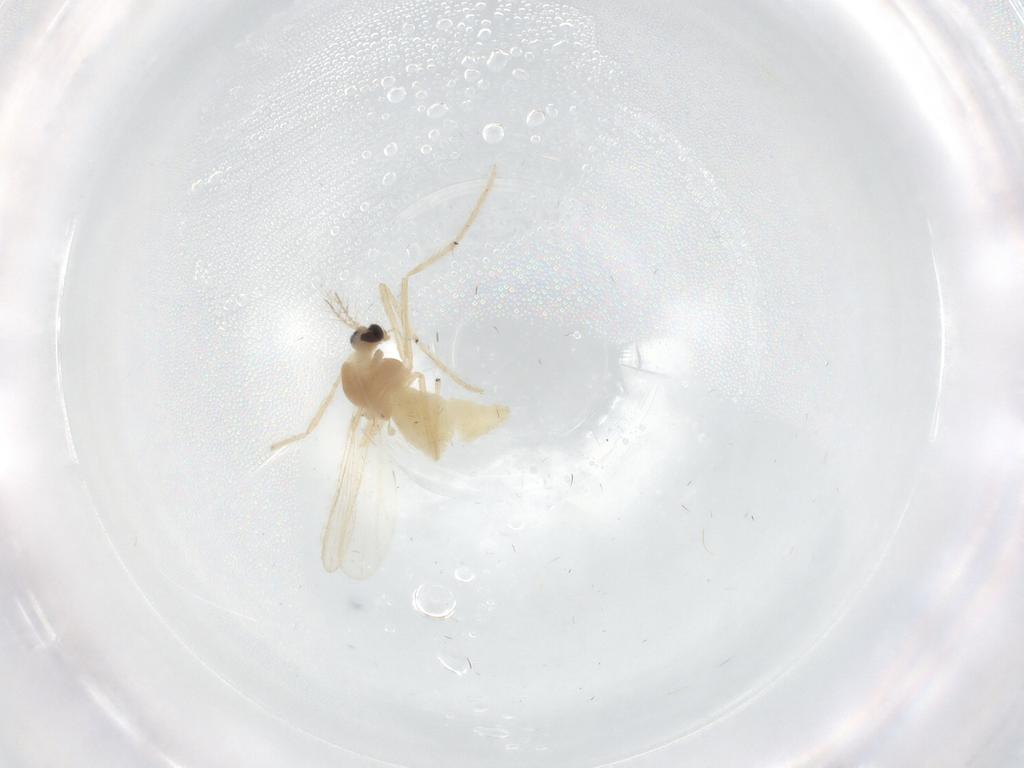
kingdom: Animalia
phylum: Arthropoda
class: Insecta
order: Diptera
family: Chironomidae
